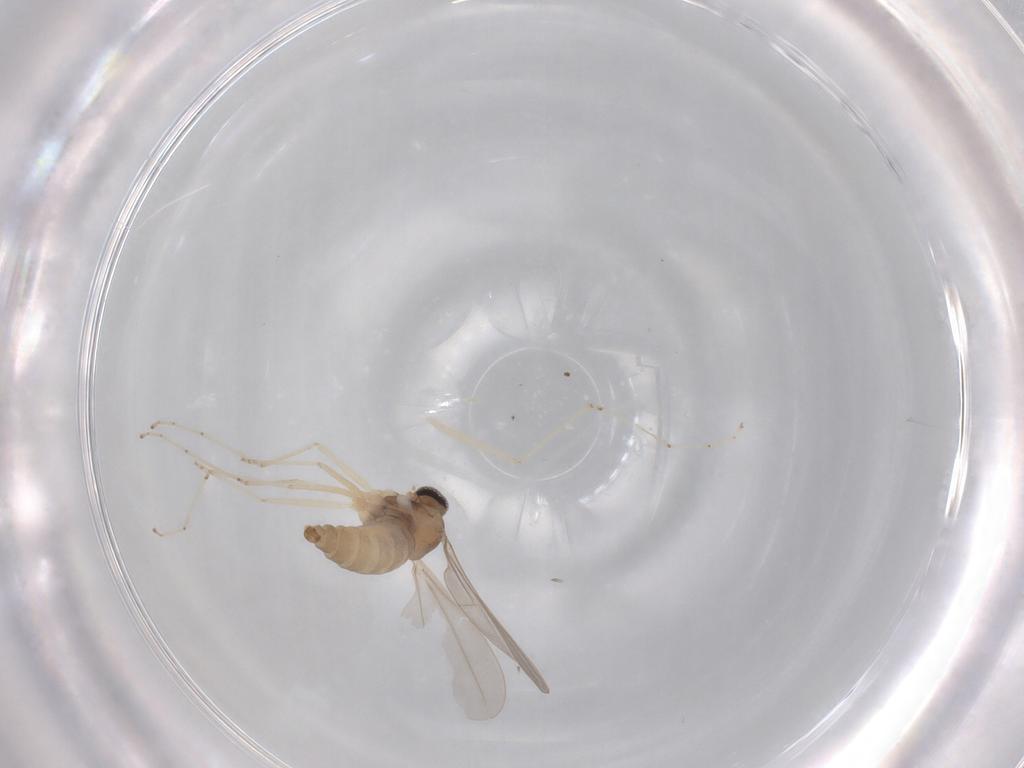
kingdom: Animalia
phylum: Arthropoda
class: Insecta
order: Diptera
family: Cecidomyiidae
